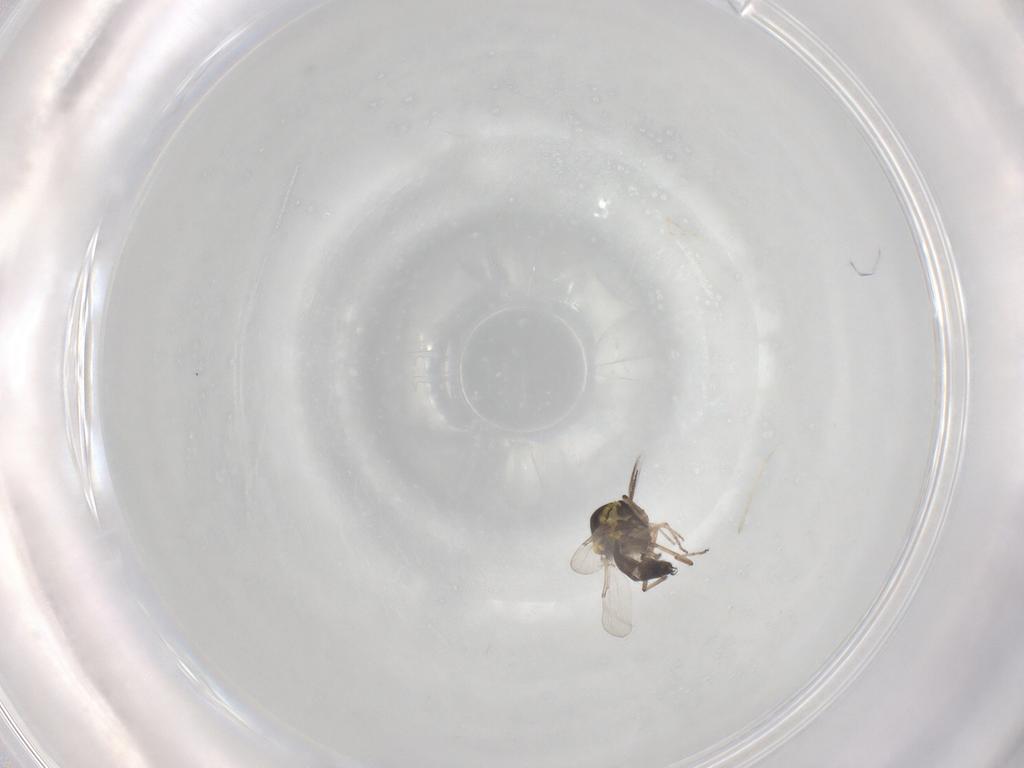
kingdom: Animalia
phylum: Arthropoda
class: Insecta
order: Diptera
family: Ceratopogonidae
